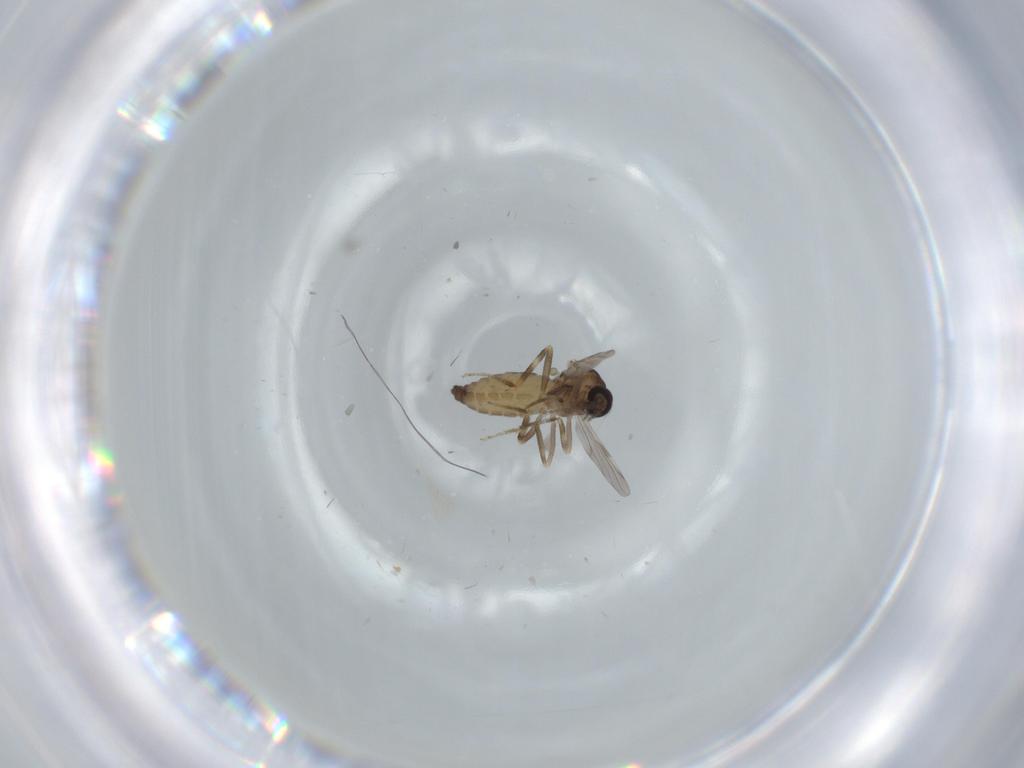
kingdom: Animalia
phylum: Arthropoda
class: Insecta
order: Diptera
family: Ceratopogonidae
